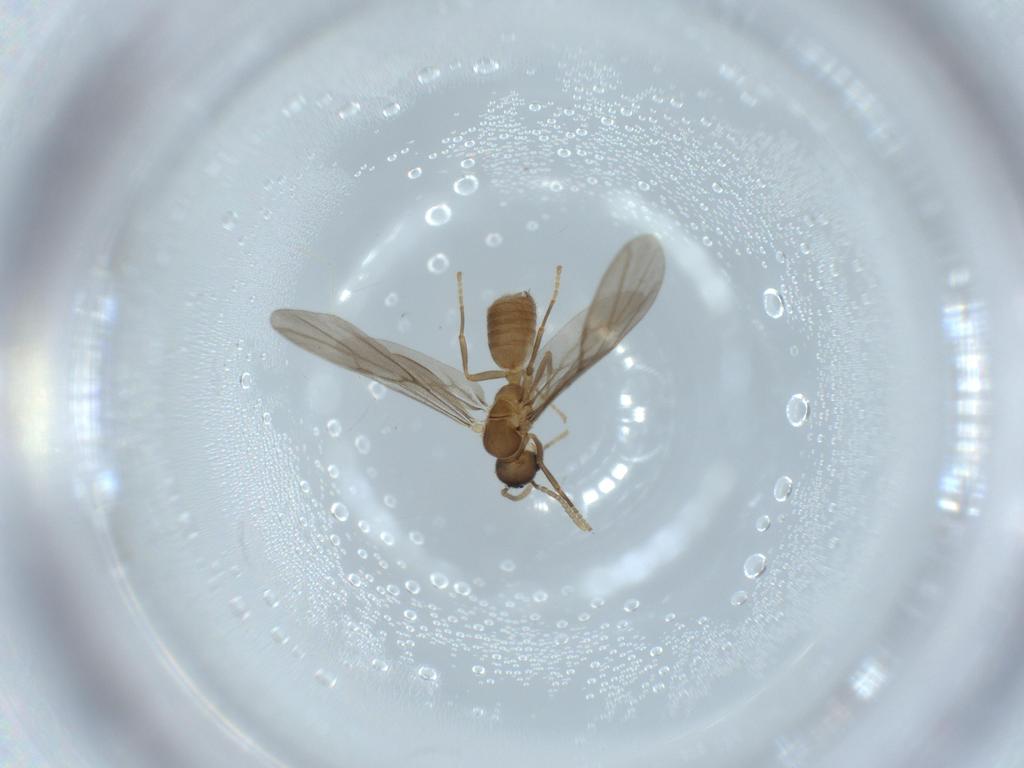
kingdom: Animalia
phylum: Arthropoda
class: Insecta
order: Hymenoptera
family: Formicidae
